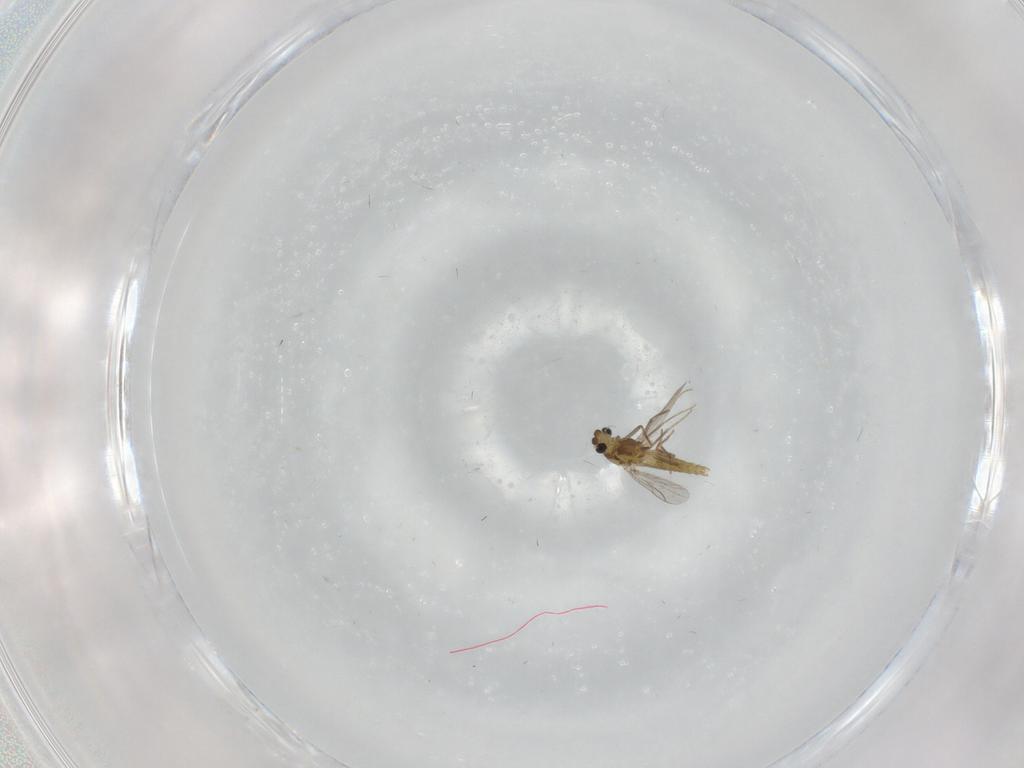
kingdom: Animalia
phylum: Arthropoda
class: Insecta
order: Diptera
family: Chironomidae
